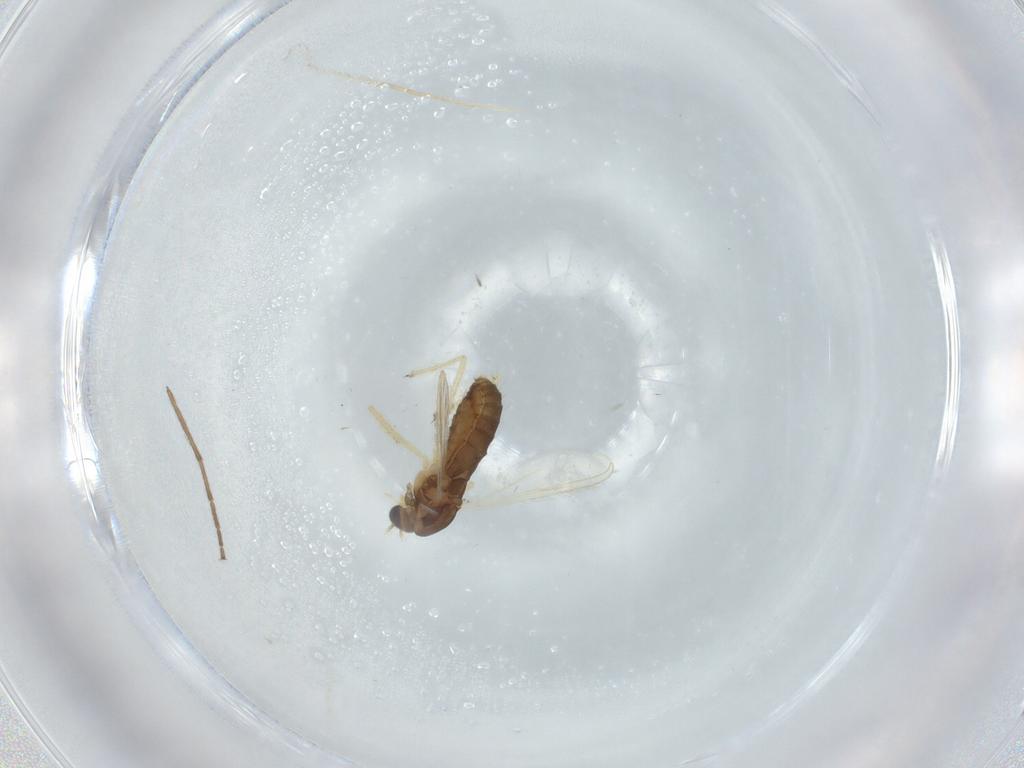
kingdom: Animalia
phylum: Arthropoda
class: Insecta
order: Diptera
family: Chironomidae
